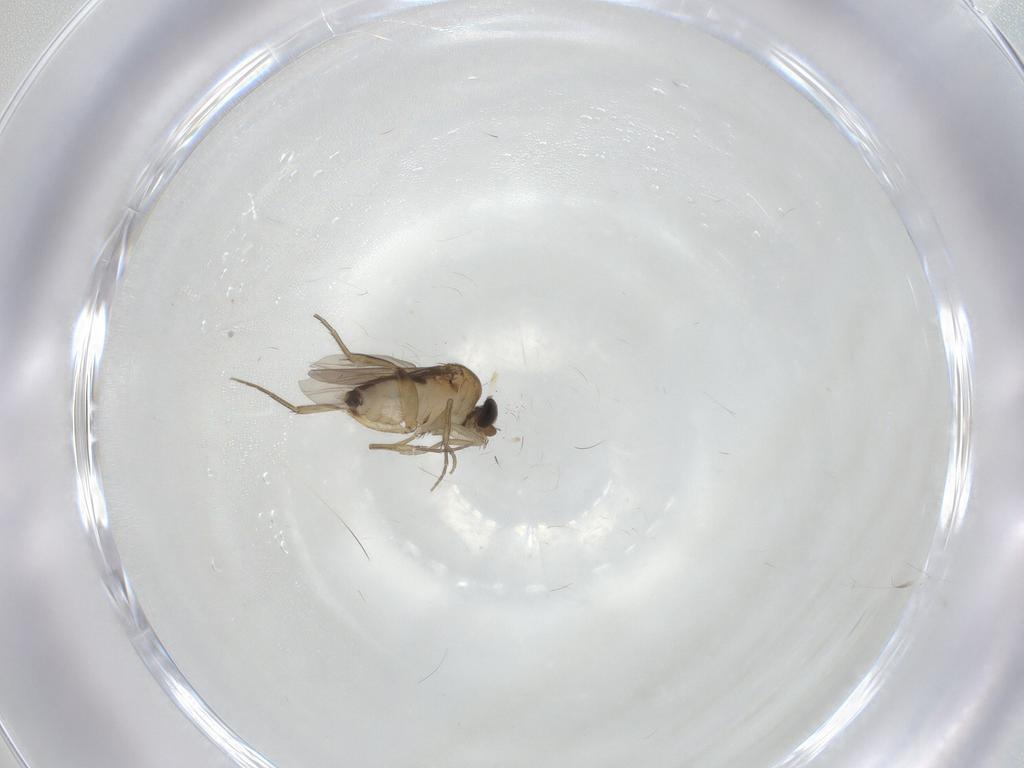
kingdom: Animalia
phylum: Arthropoda
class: Insecta
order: Diptera
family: Phoridae
